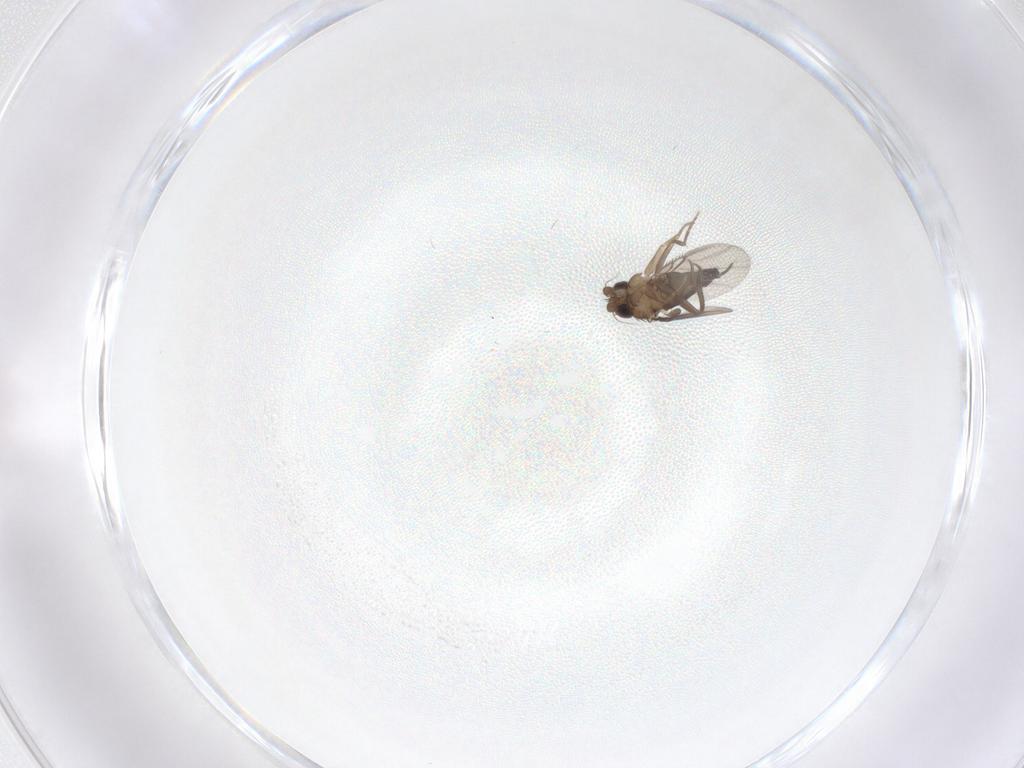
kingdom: Animalia
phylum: Arthropoda
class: Insecta
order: Diptera
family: Phoridae
